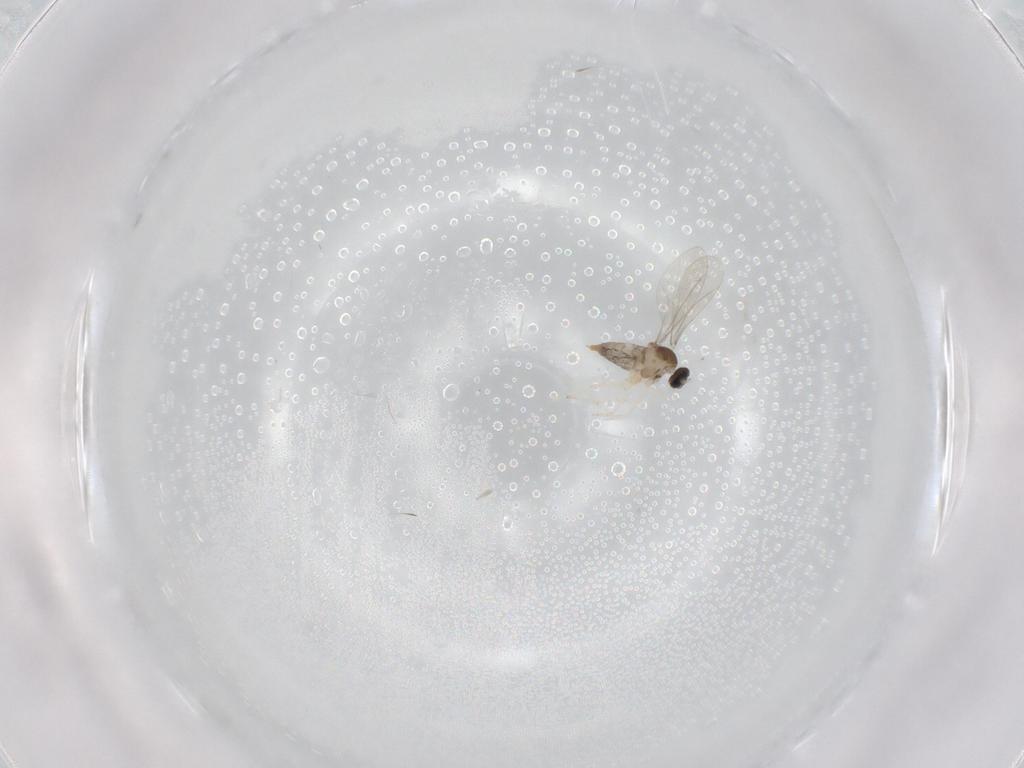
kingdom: Animalia
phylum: Arthropoda
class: Insecta
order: Diptera
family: Cecidomyiidae
